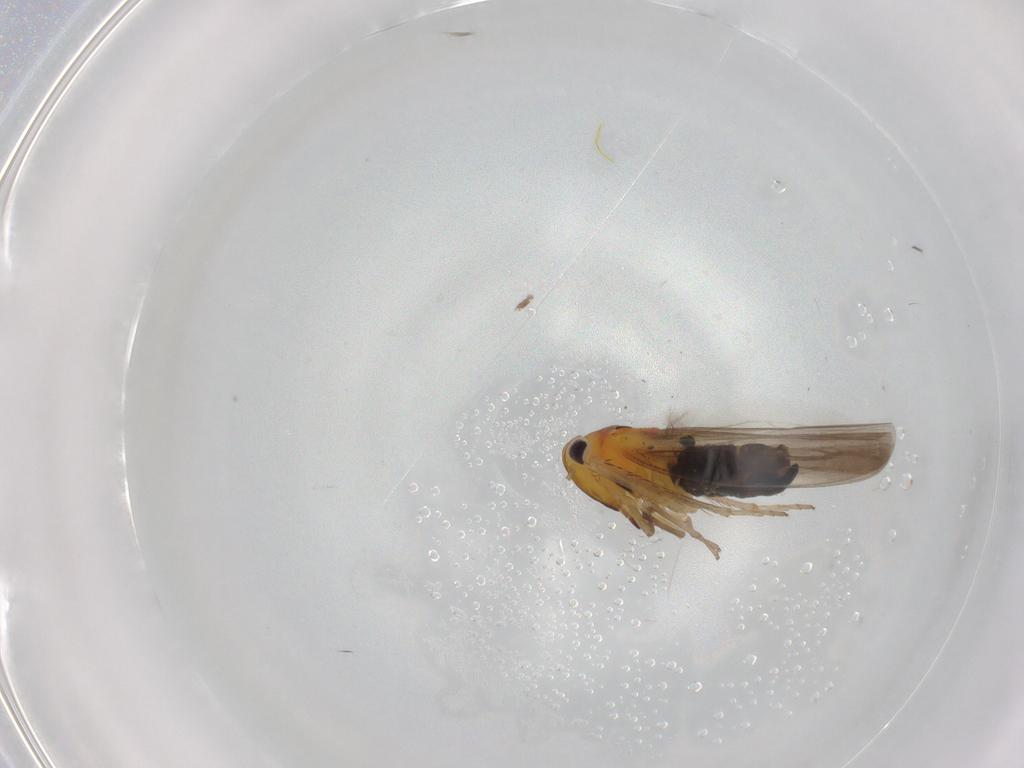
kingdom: Animalia
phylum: Arthropoda
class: Insecta
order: Hemiptera
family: Cicadellidae
